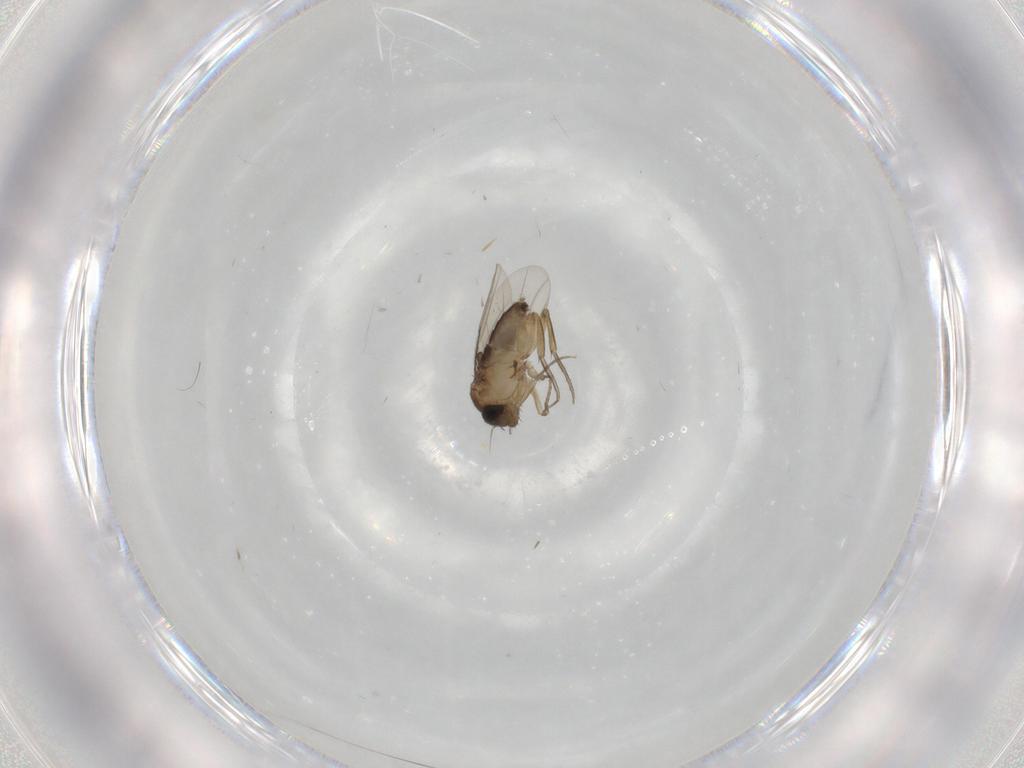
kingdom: Animalia
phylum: Arthropoda
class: Insecta
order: Diptera
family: Phoridae
